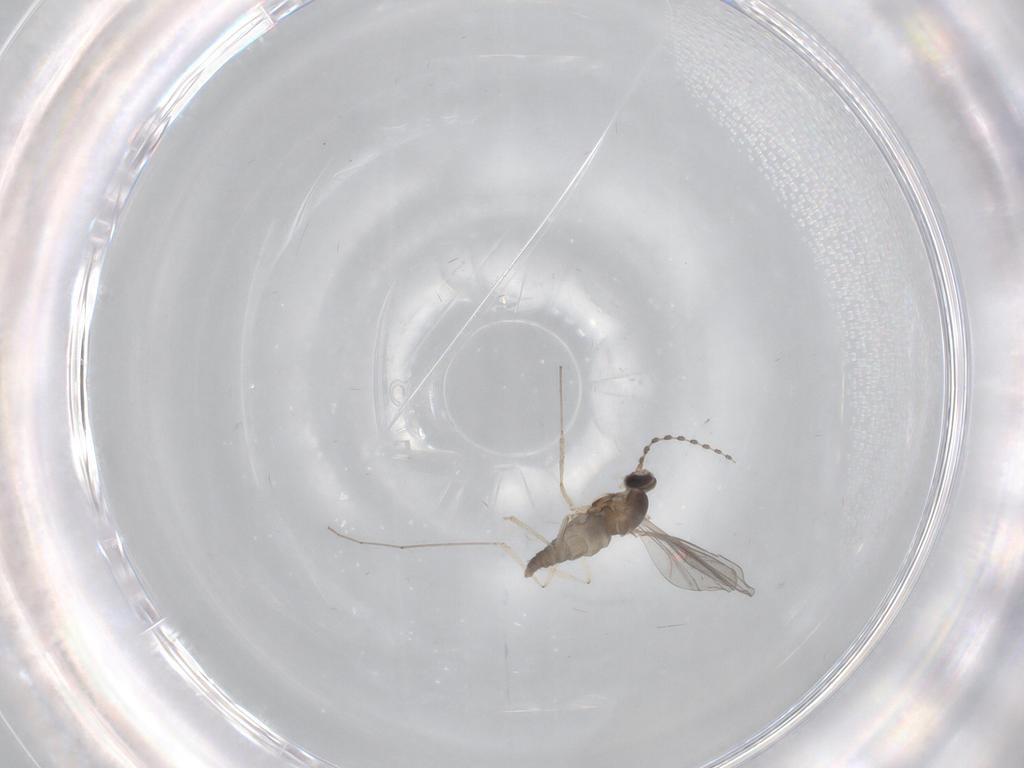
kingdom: Animalia
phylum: Arthropoda
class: Insecta
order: Diptera
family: Cecidomyiidae
